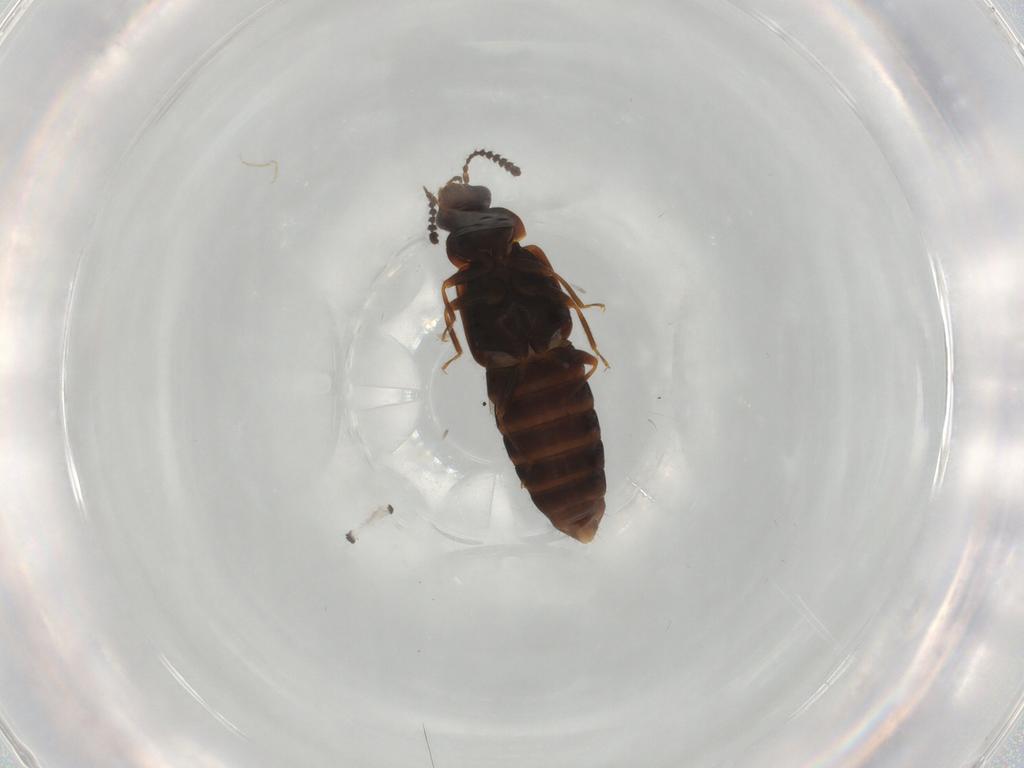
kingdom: Animalia
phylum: Arthropoda
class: Insecta
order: Coleoptera
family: Staphylinidae
